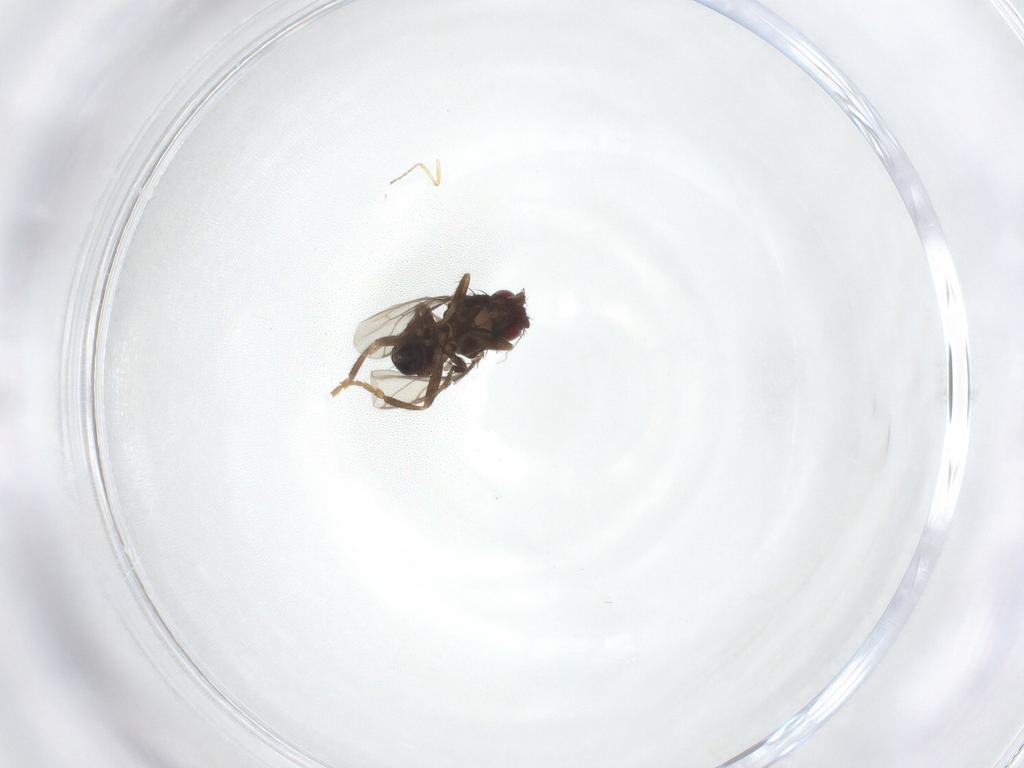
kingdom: Animalia
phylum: Arthropoda
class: Insecta
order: Diptera
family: Sphaeroceridae
